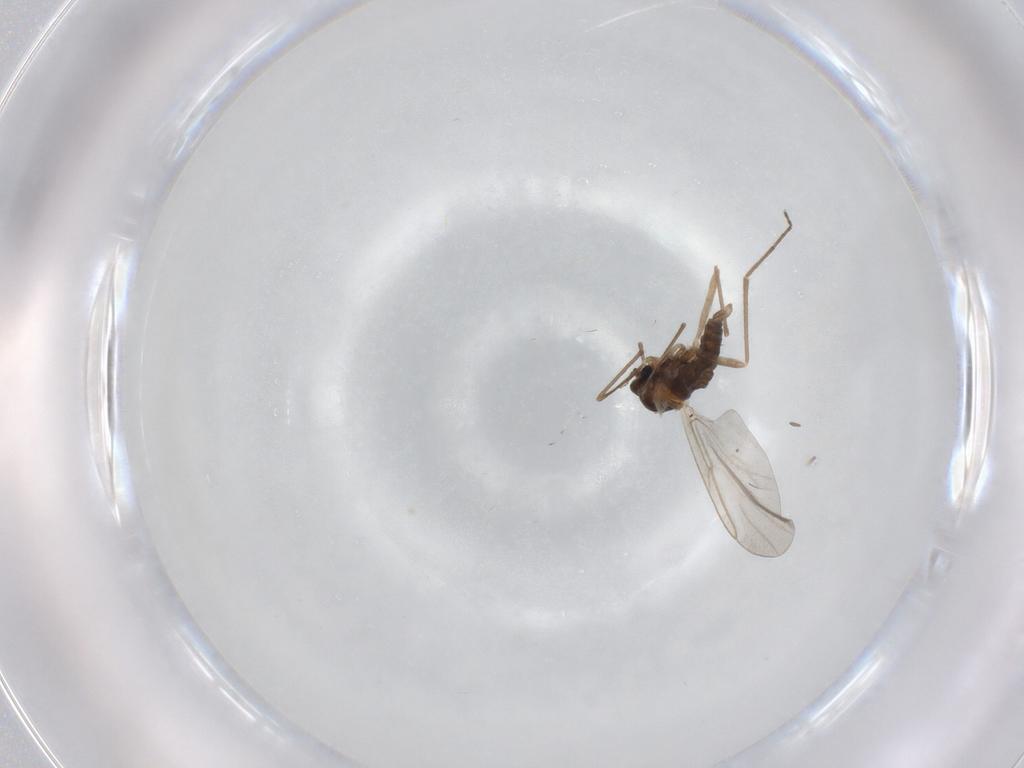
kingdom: Animalia
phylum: Arthropoda
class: Insecta
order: Diptera
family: Cecidomyiidae
